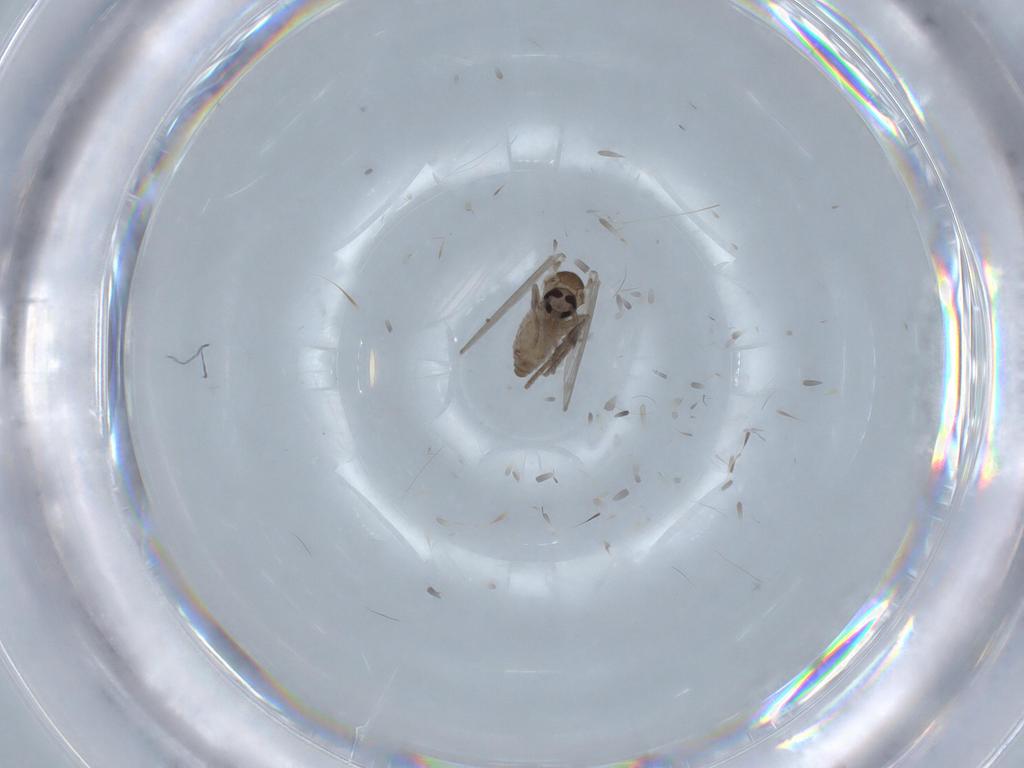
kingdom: Animalia
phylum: Arthropoda
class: Insecta
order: Diptera
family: Psychodidae
